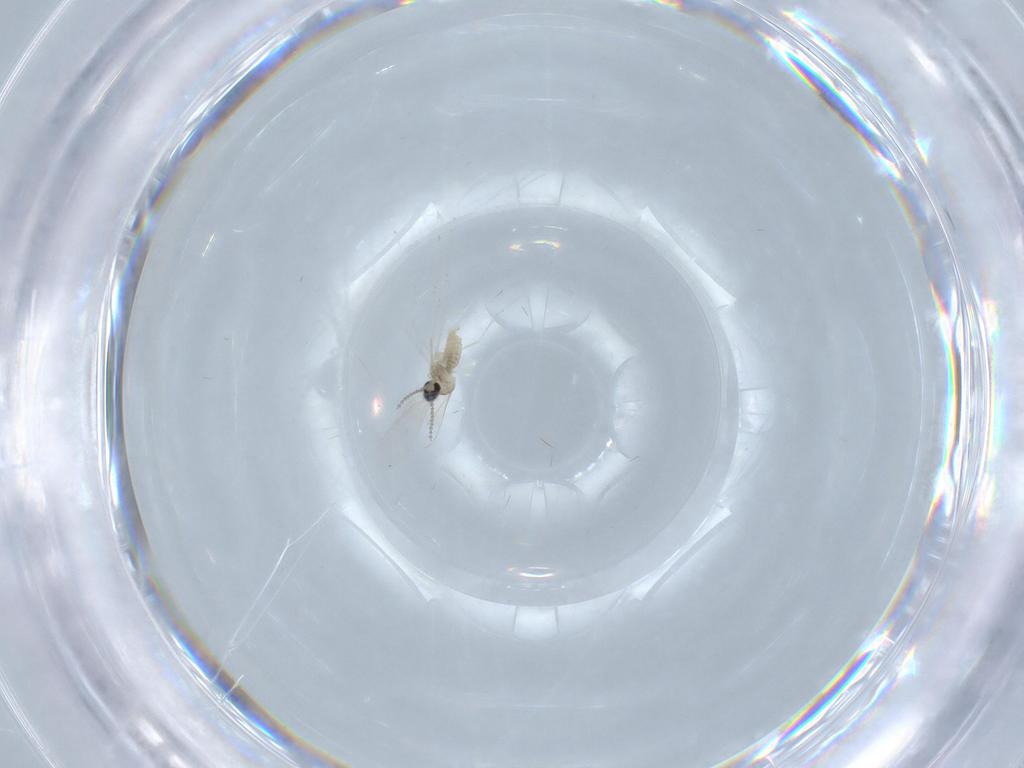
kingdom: Animalia
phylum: Arthropoda
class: Insecta
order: Diptera
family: Cecidomyiidae
